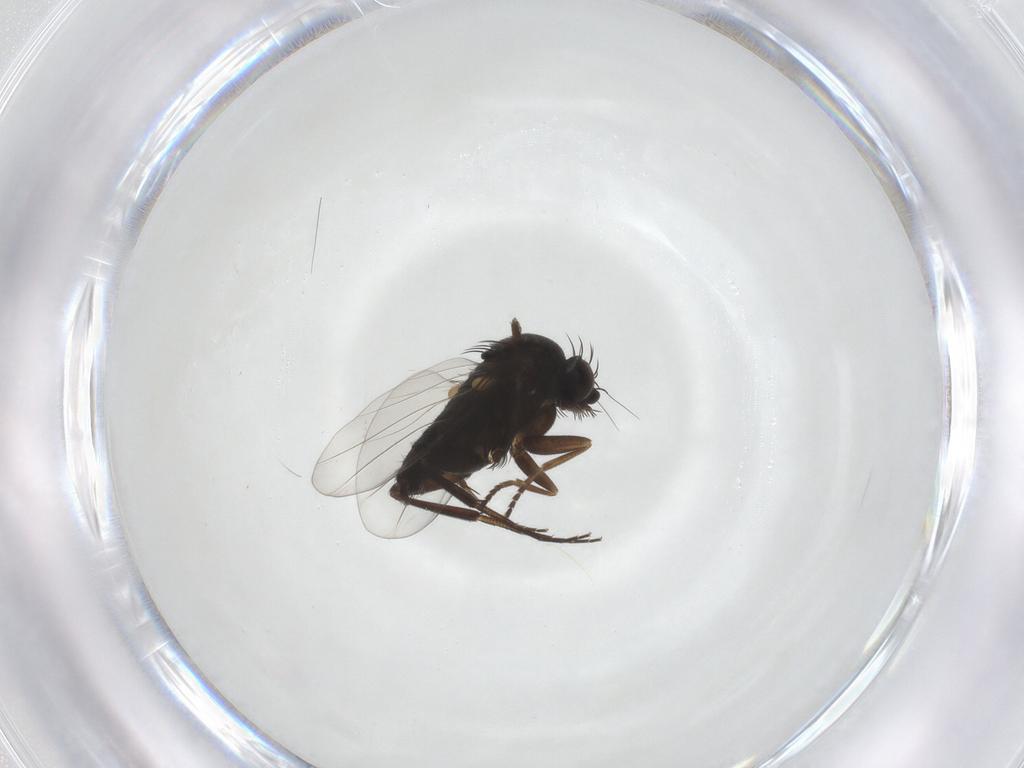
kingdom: Animalia
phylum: Arthropoda
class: Insecta
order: Diptera
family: Phoridae
